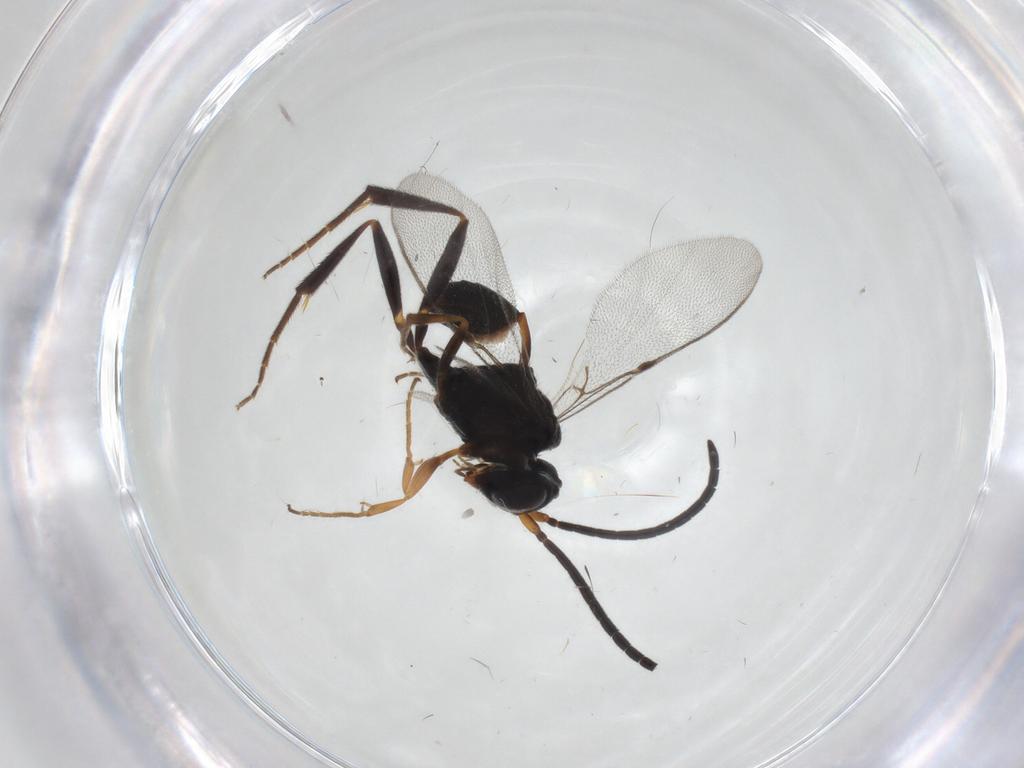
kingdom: Animalia
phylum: Arthropoda
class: Insecta
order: Hymenoptera
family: Evaniidae
